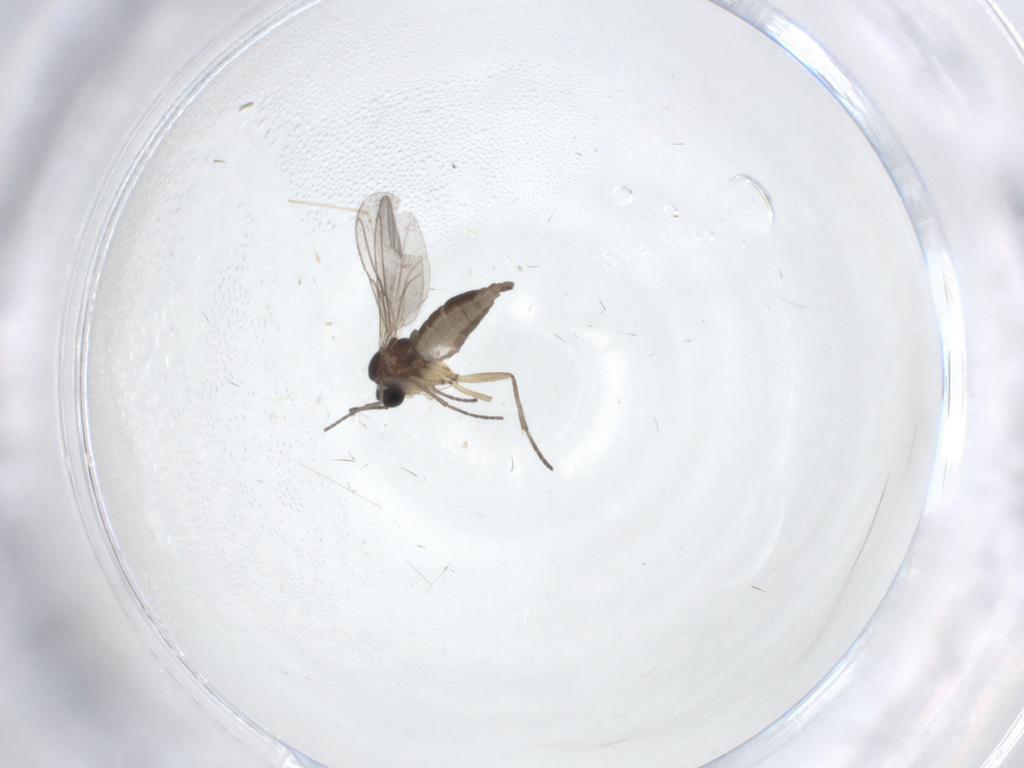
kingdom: Animalia
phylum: Arthropoda
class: Insecta
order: Diptera
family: Sciaridae
